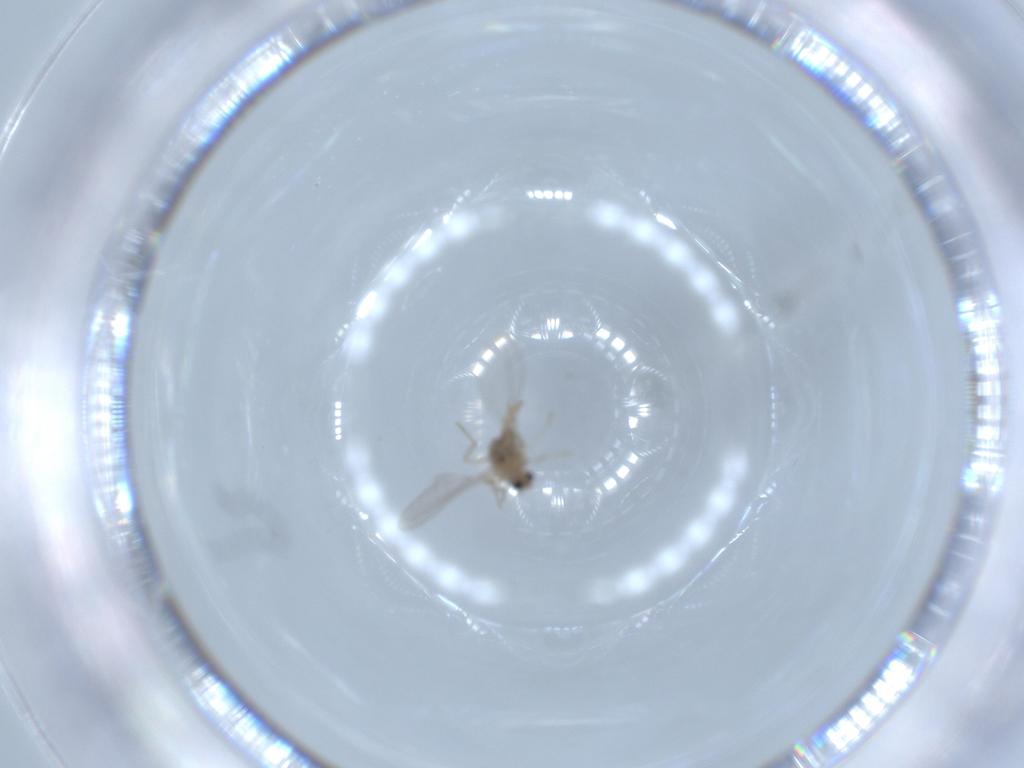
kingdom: Animalia
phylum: Arthropoda
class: Insecta
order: Diptera
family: Cecidomyiidae
